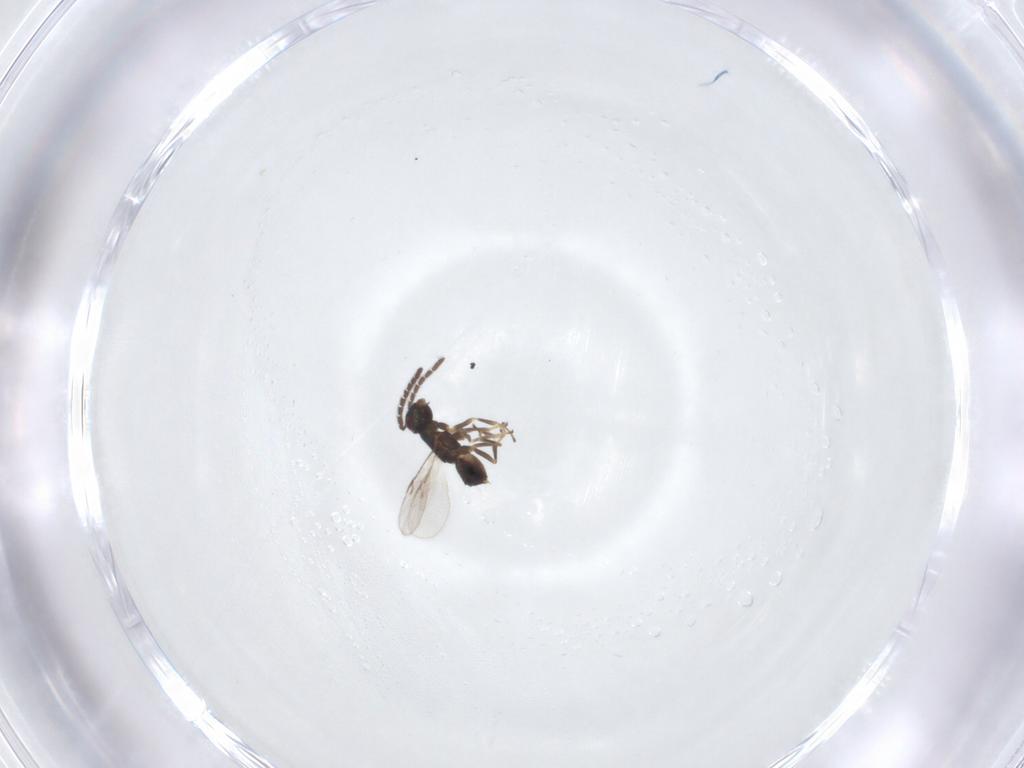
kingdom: Animalia
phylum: Arthropoda
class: Insecta
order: Hymenoptera
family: Encyrtidae
